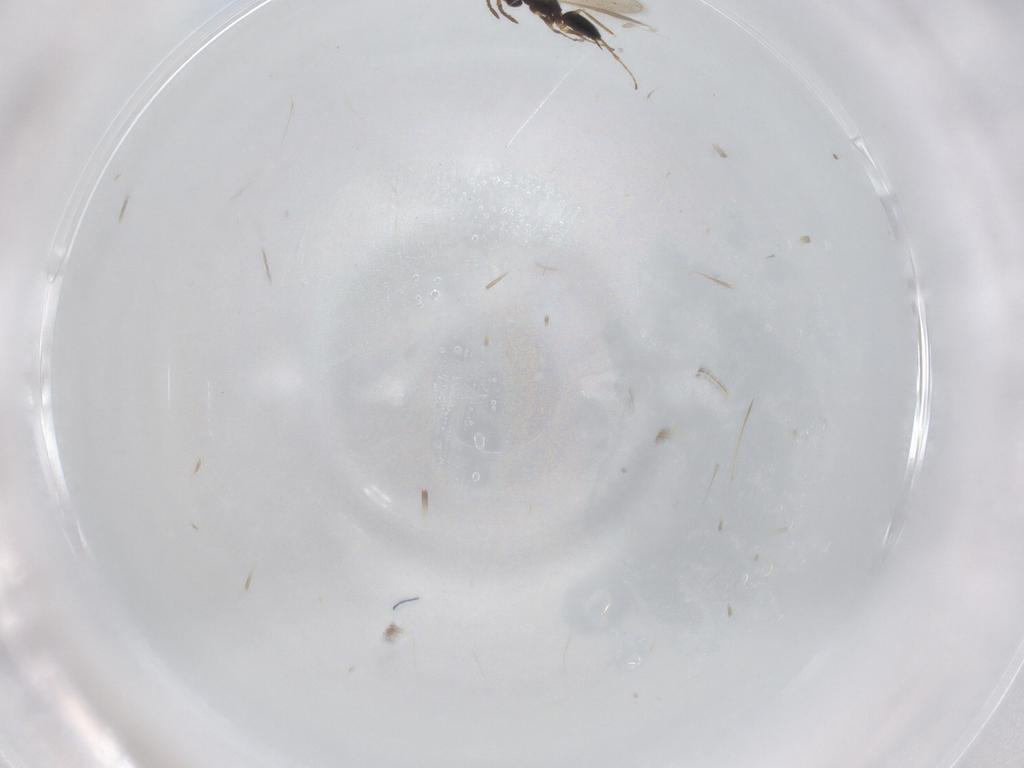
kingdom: Animalia
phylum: Arthropoda
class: Insecta
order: Hymenoptera
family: Pteromalidae
